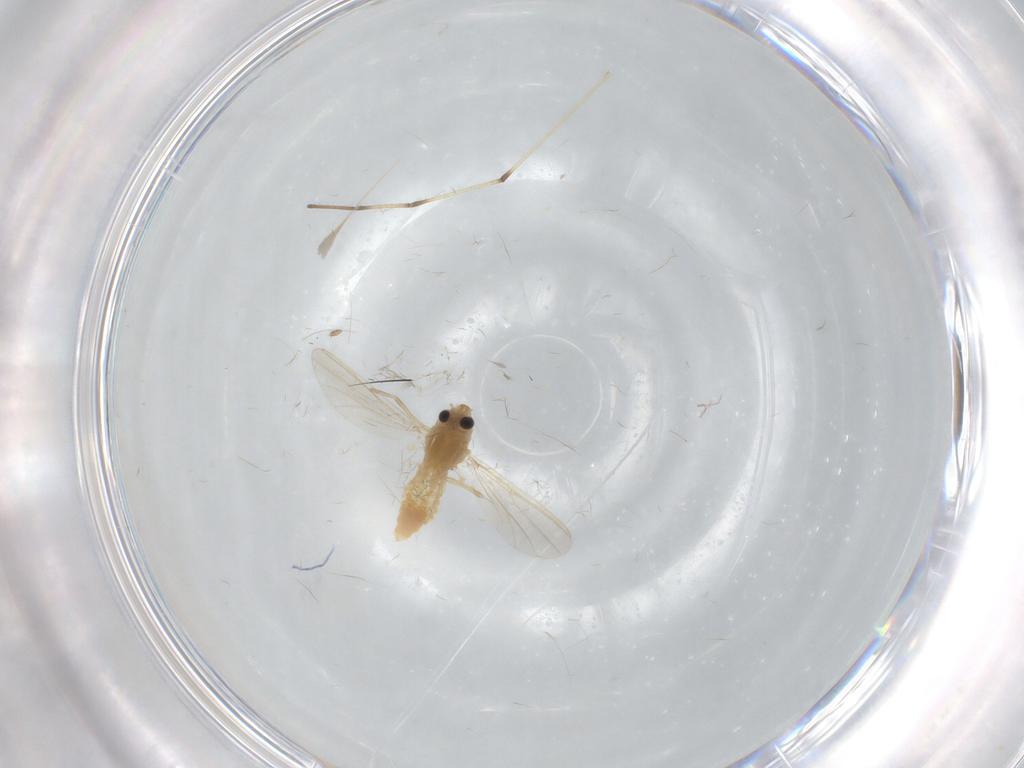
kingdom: Animalia
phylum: Arthropoda
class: Insecta
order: Diptera
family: Chironomidae
